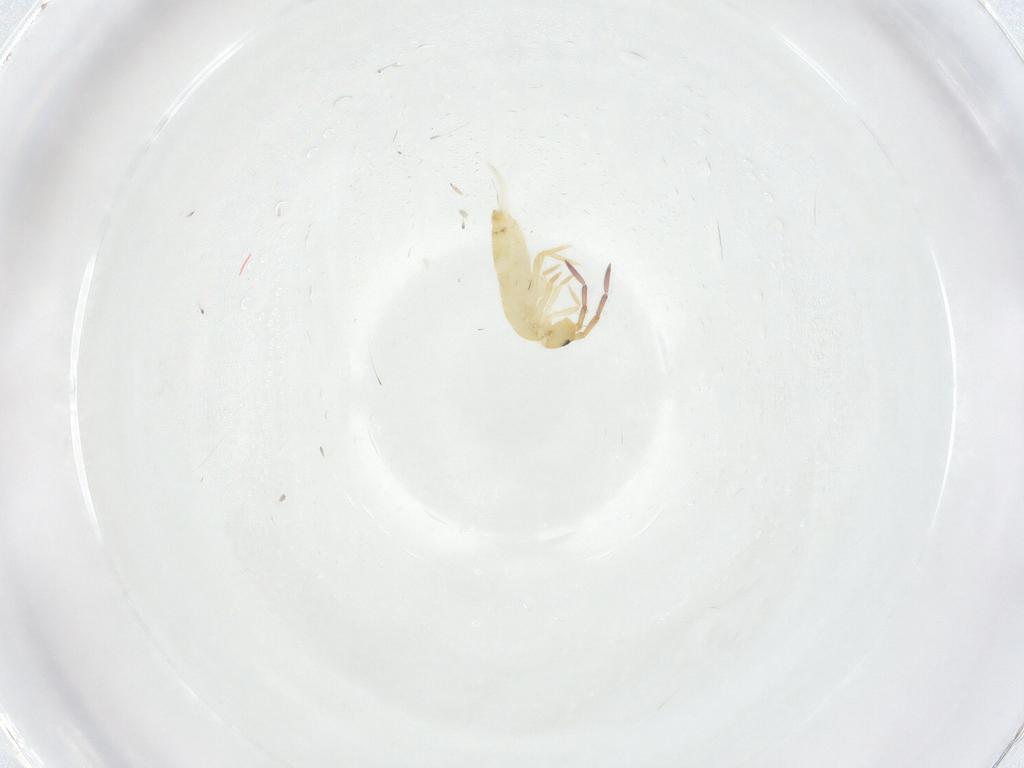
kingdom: Animalia
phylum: Arthropoda
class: Collembola
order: Entomobryomorpha
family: Entomobryidae
